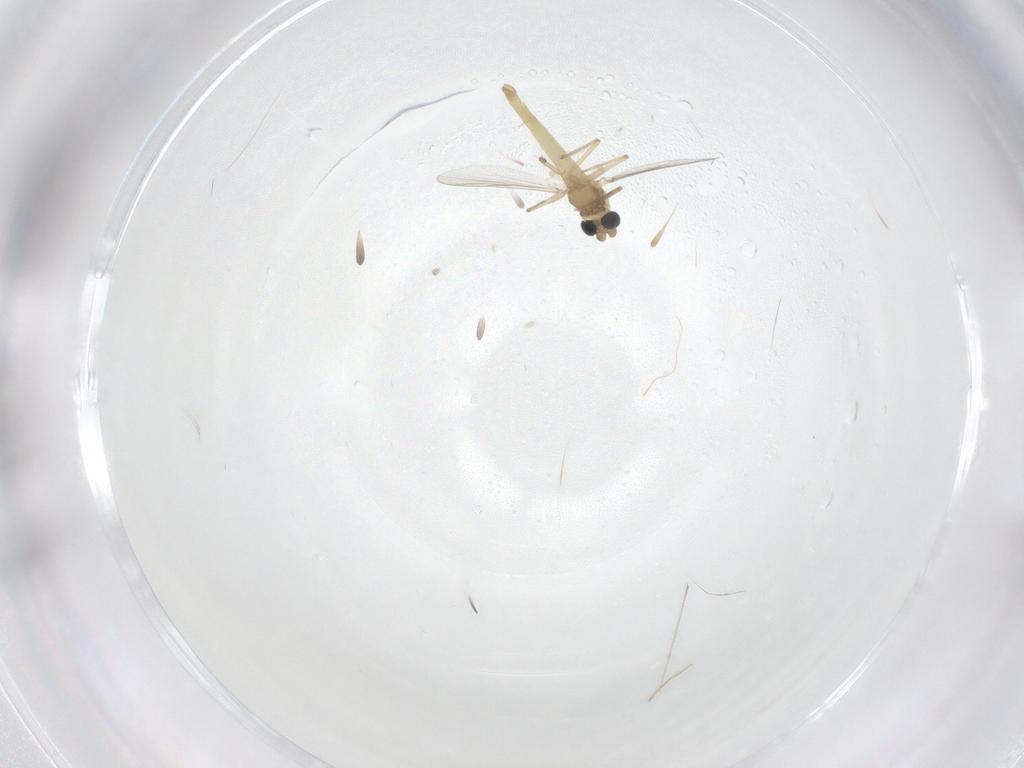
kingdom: Animalia
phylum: Arthropoda
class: Insecta
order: Diptera
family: Chironomidae
